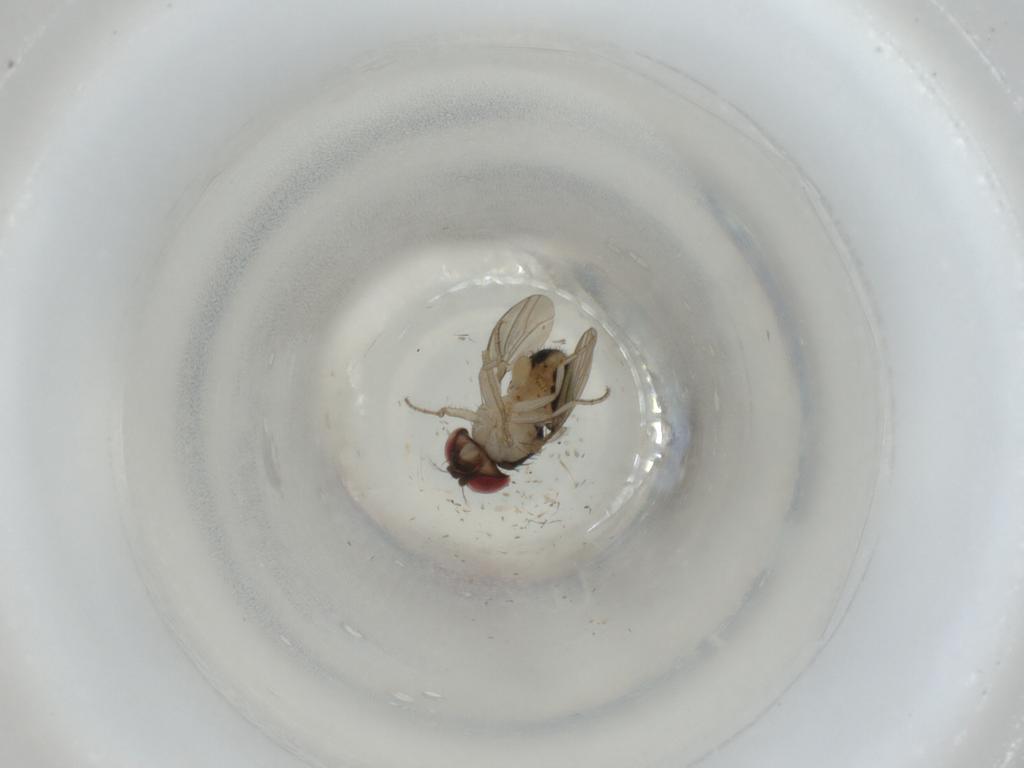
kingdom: Animalia
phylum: Arthropoda
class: Insecta
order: Diptera
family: Drosophilidae
